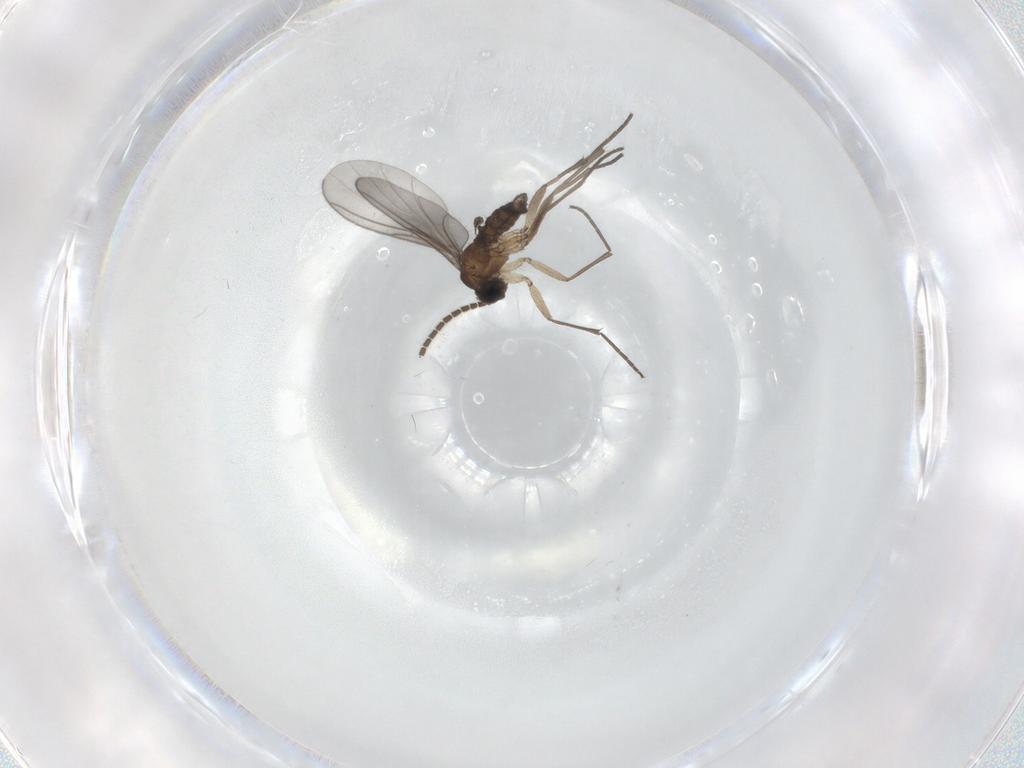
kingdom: Animalia
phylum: Arthropoda
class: Insecta
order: Diptera
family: Sciaridae
